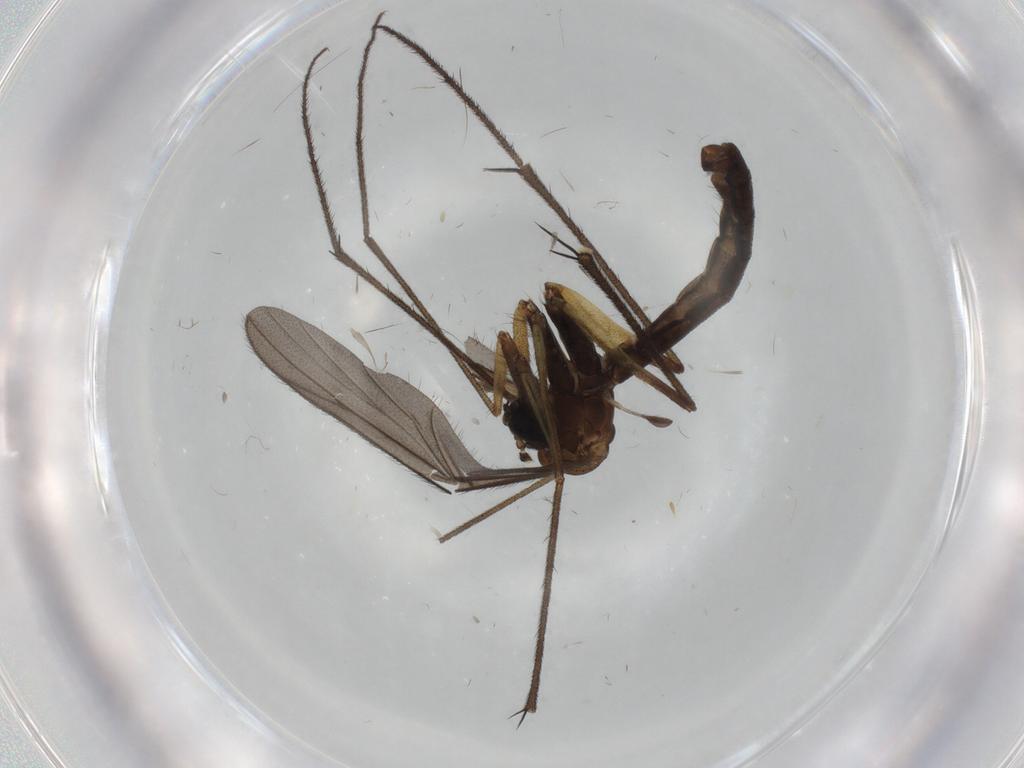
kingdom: Animalia
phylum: Arthropoda
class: Insecta
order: Diptera
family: Ditomyiidae
